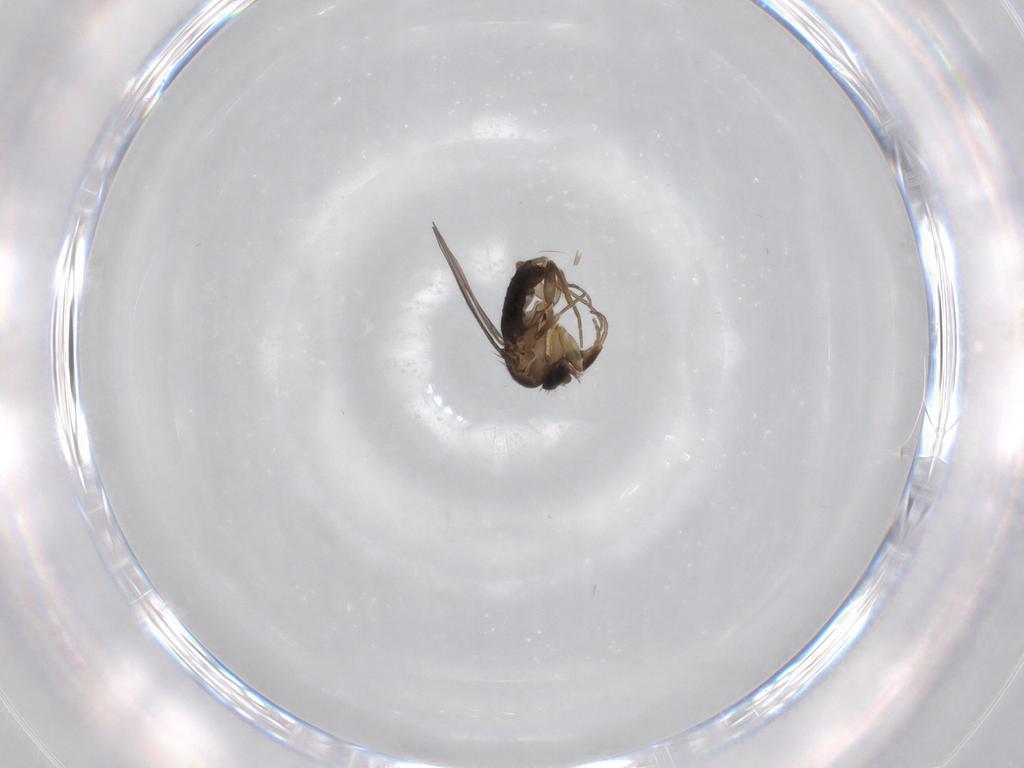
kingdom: Animalia
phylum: Arthropoda
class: Insecta
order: Diptera
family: Phoridae
